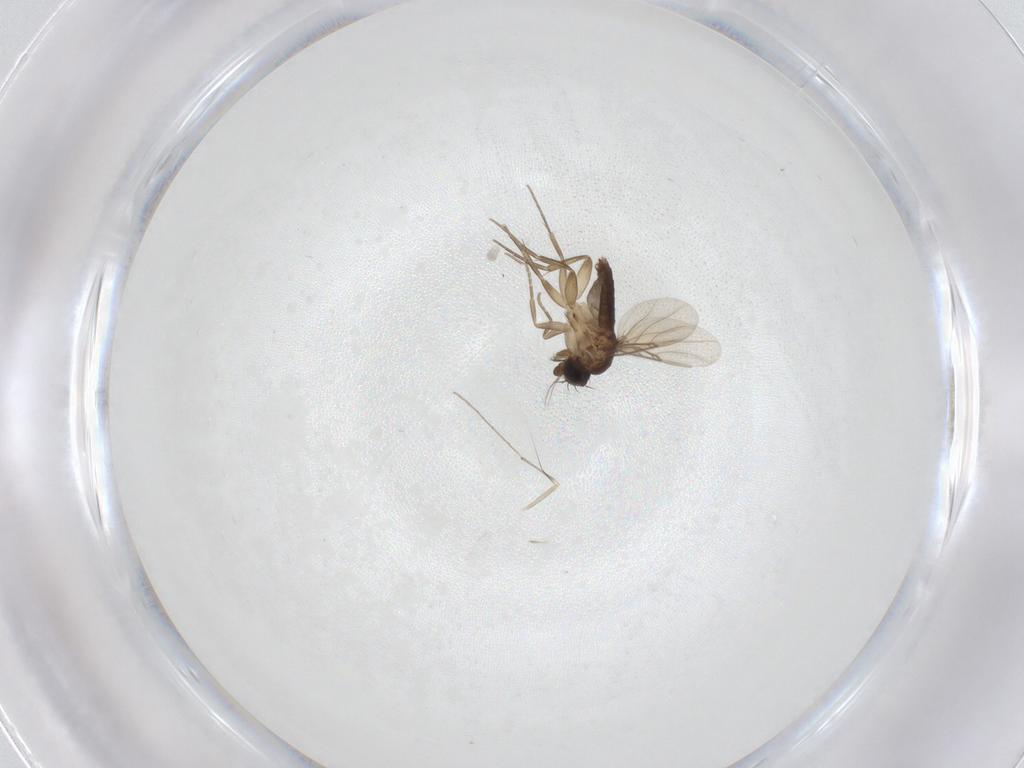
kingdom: Animalia
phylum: Arthropoda
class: Insecta
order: Diptera
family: Phoridae
